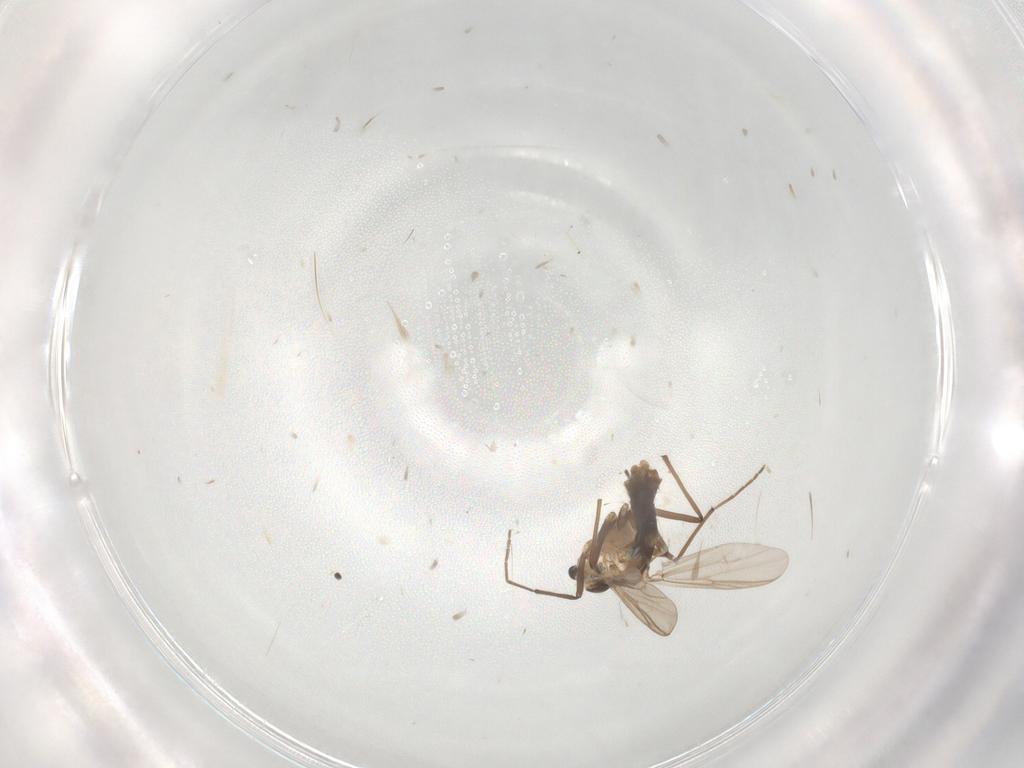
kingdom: Animalia
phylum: Arthropoda
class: Insecta
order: Diptera
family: Chironomidae
